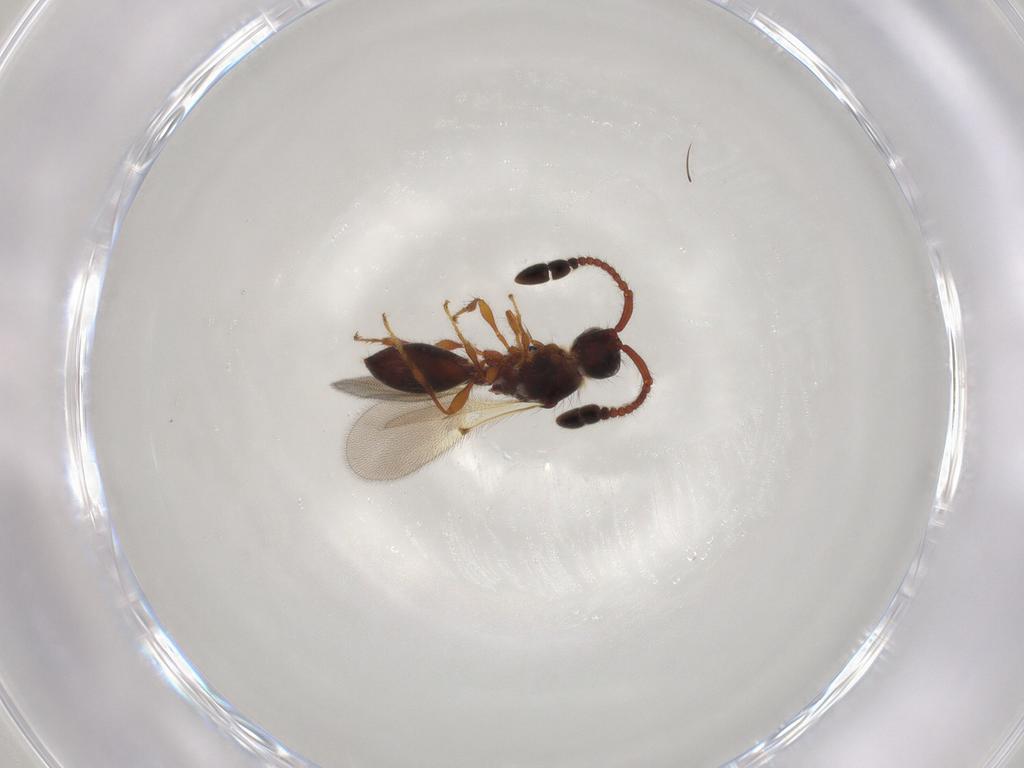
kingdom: Animalia
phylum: Arthropoda
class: Insecta
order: Hymenoptera
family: Diapriidae
